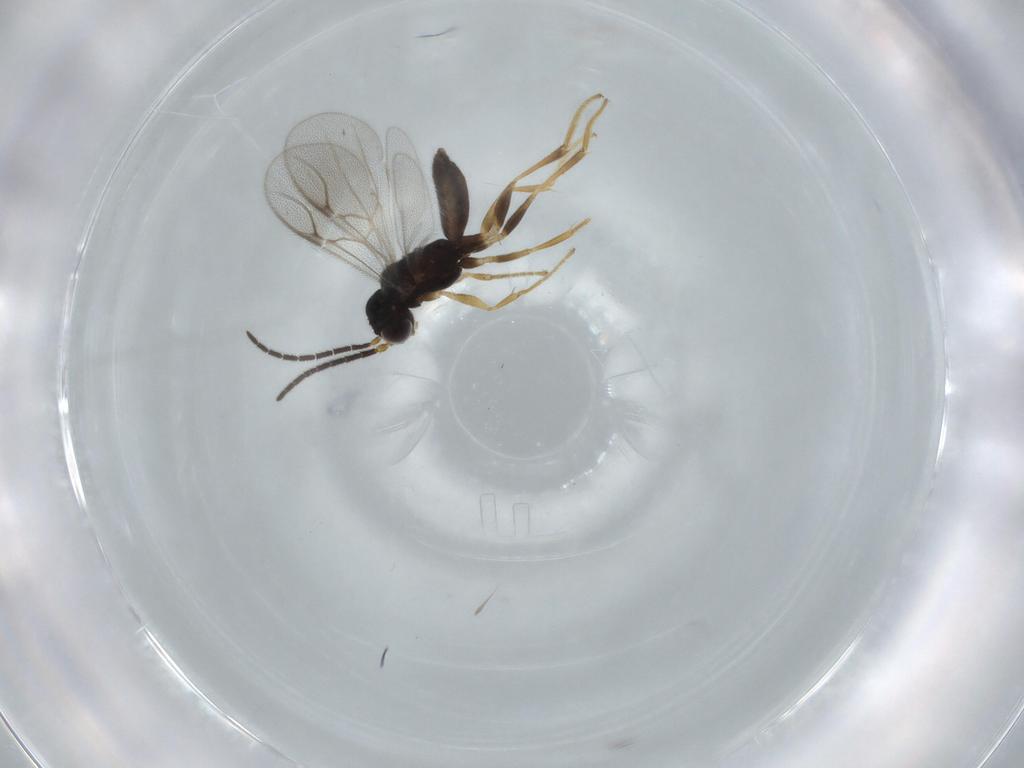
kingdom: Animalia
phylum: Arthropoda
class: Insecta
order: Hymenoptera
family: Dryinidae
